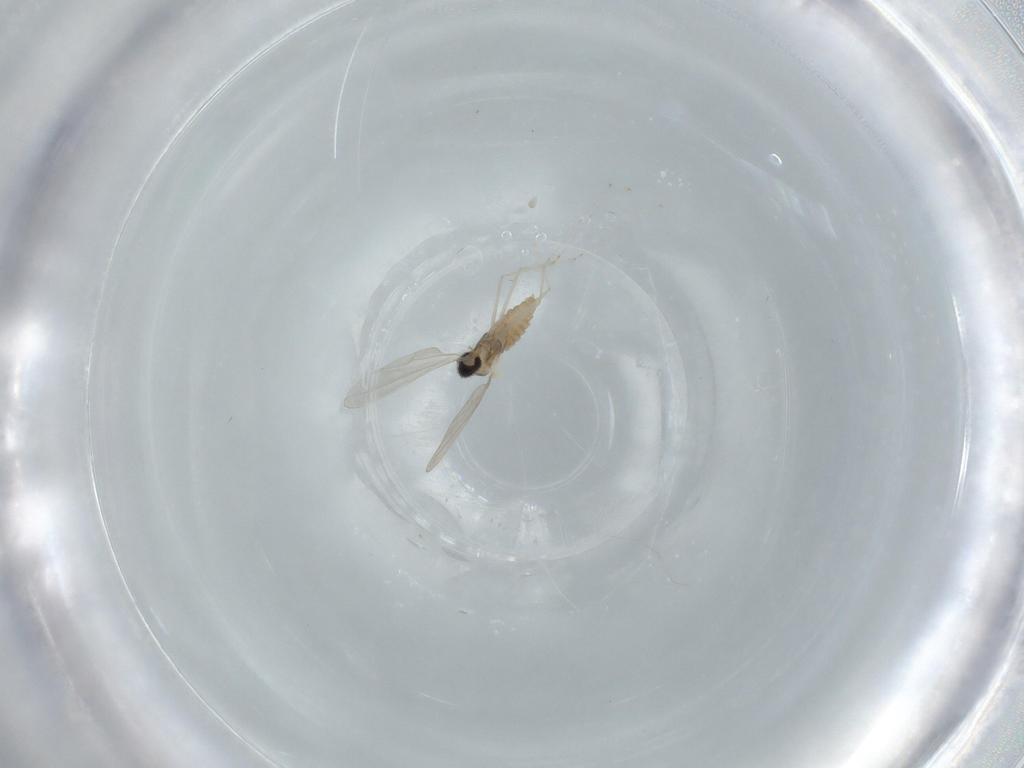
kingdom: Animalia
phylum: Arthropoda
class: Insecta
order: Diptera
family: Cecidomyiidae
